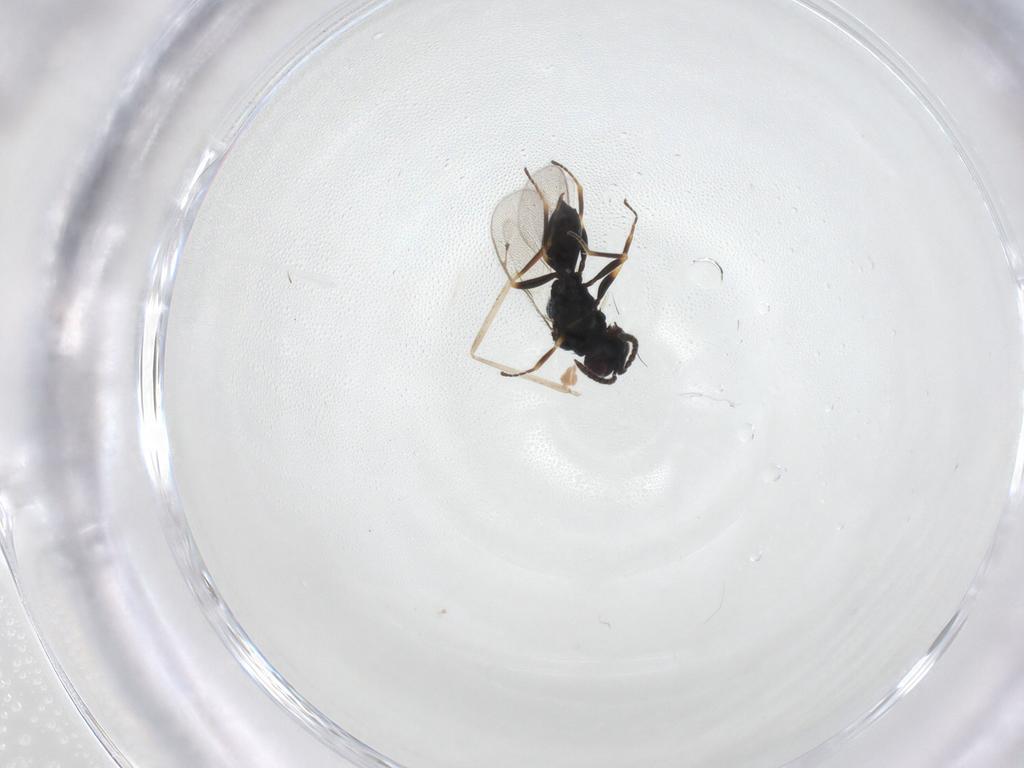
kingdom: Animalia
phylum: Arthropoda
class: Insecta
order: Hymenoptera
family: Pteromalidae
